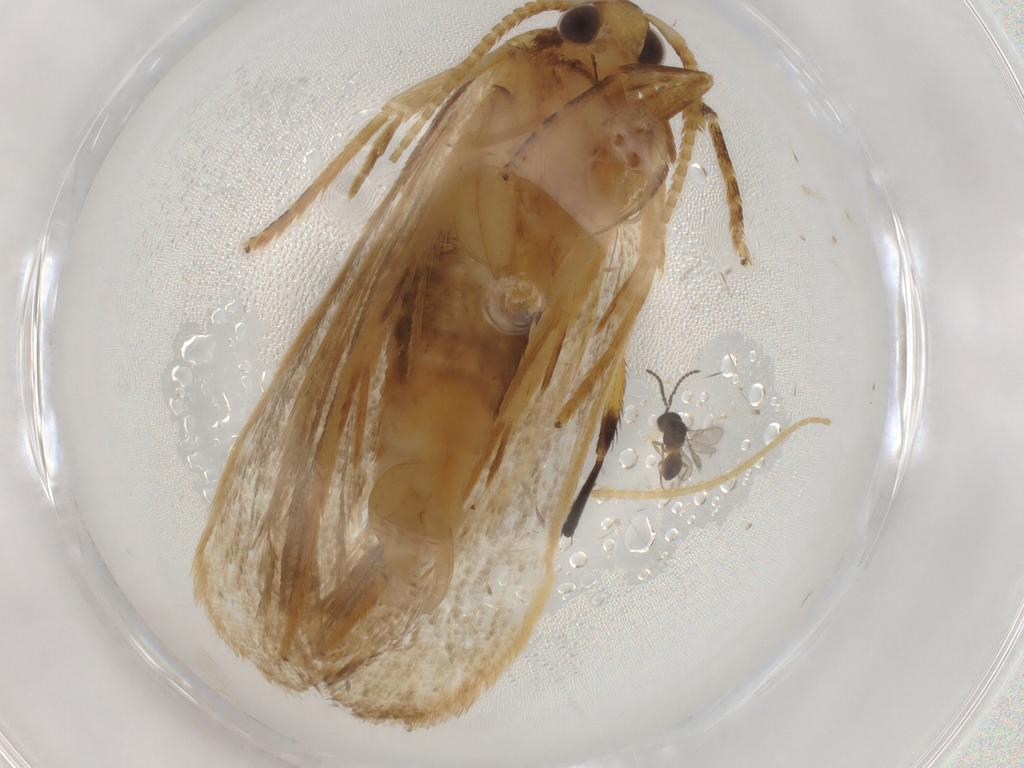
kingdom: Animalia
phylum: Arthropoda
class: Insecta
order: Lepidoptera
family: Lecithoceridae
